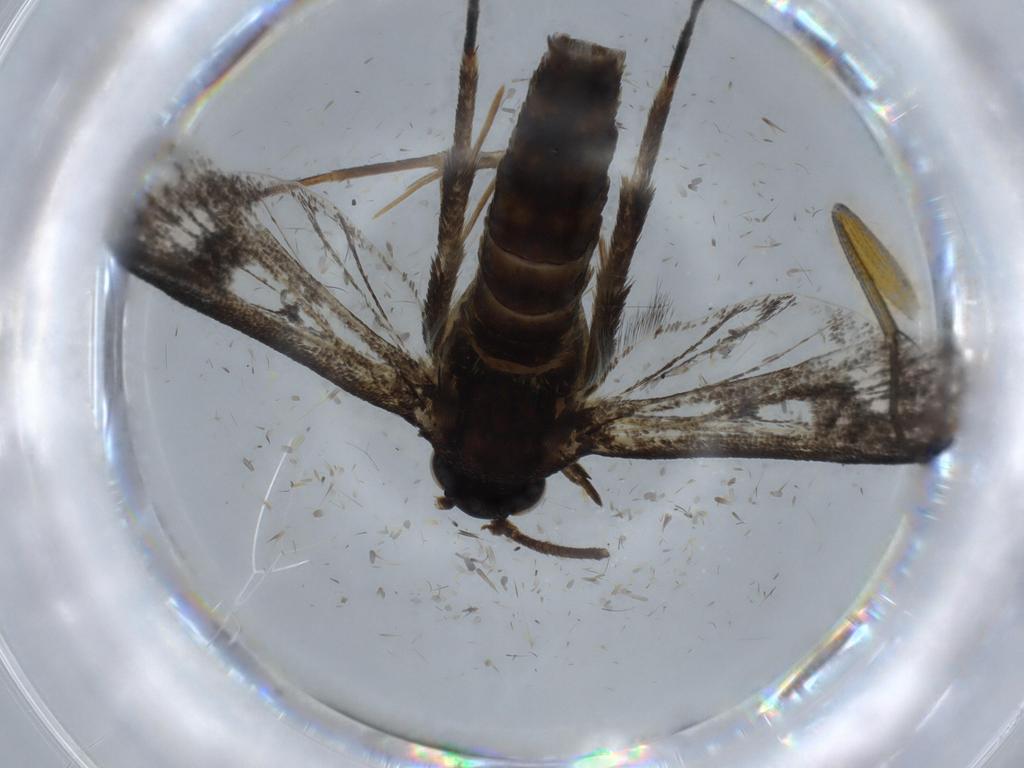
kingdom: Animalia
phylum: Arthropoda
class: Insecta
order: Lepidoptera
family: Sesiidae
